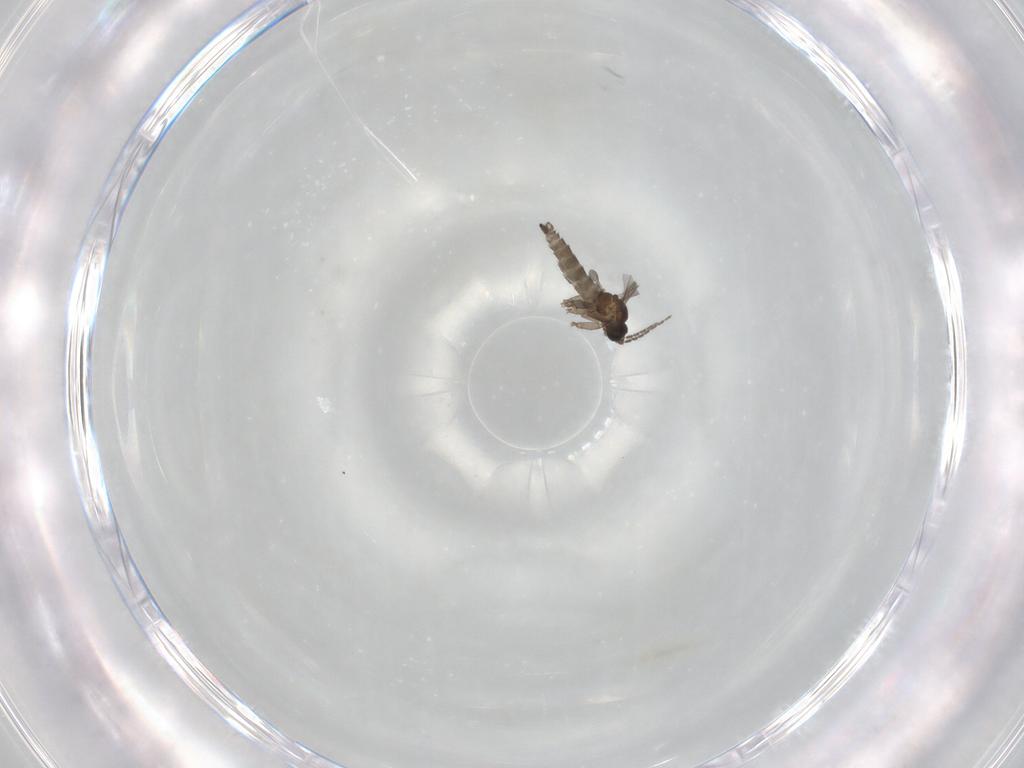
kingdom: Animalia
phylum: Arthropoda
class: Insecta
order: Diptera
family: Sciaridae
